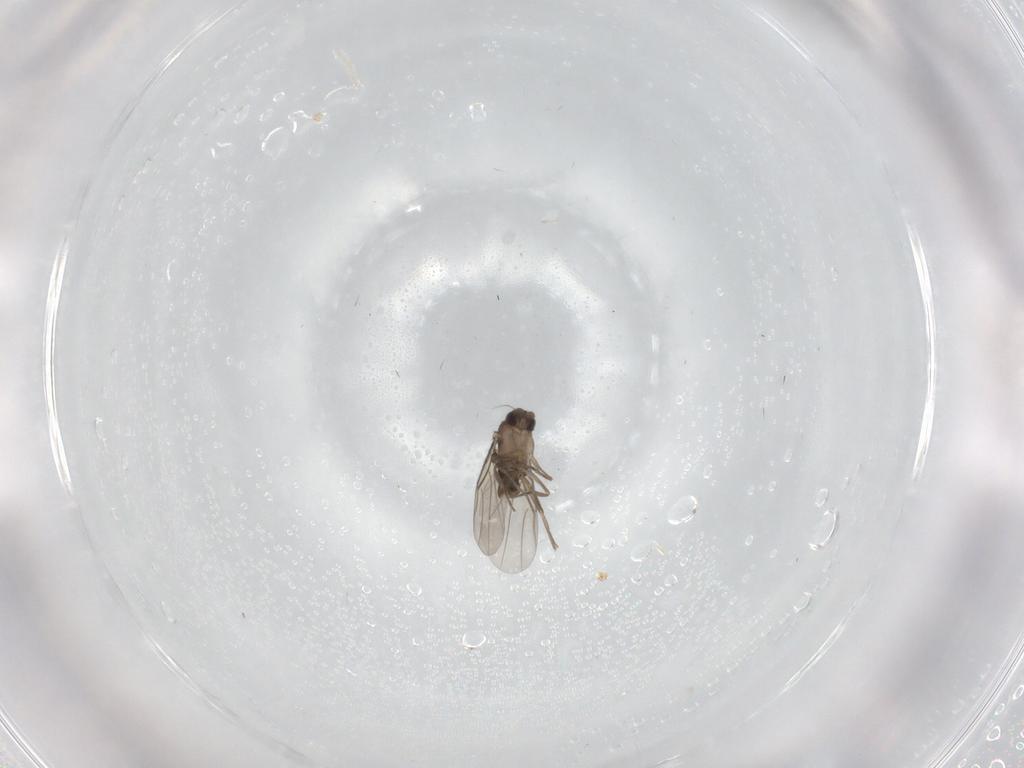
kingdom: Animalia
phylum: Arthropoda
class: Insecta
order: Diptera
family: Phoridae
